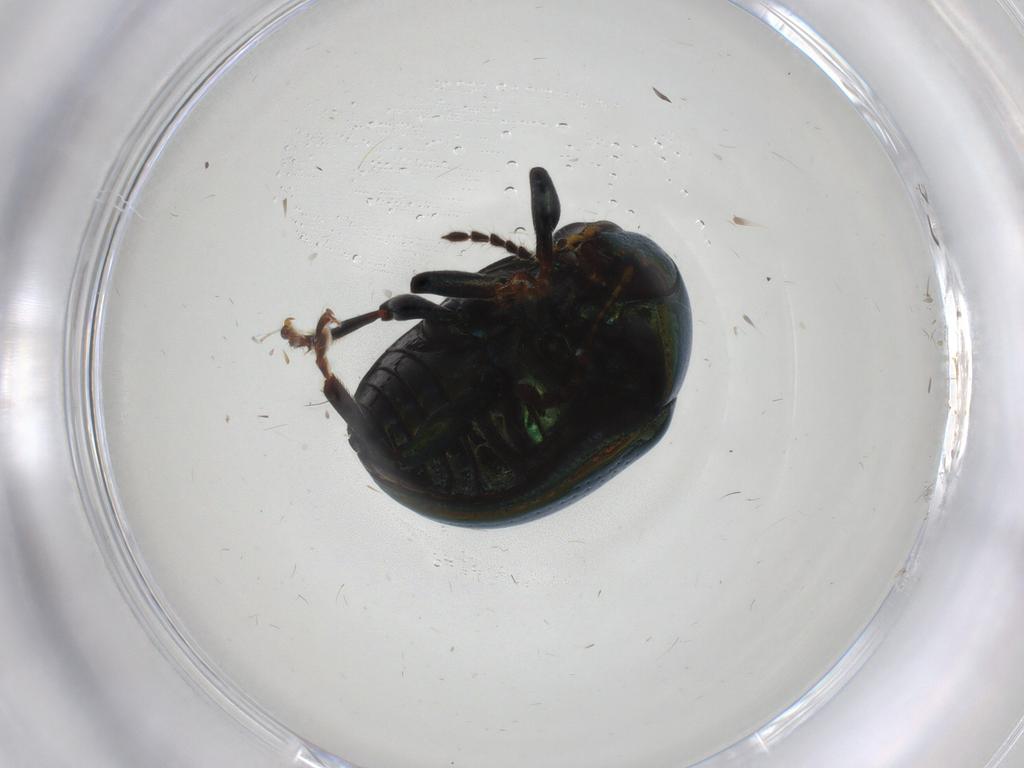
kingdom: Animalia
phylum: Arthropoda
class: Insecta
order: Coleoptera
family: Chrysomelidae
